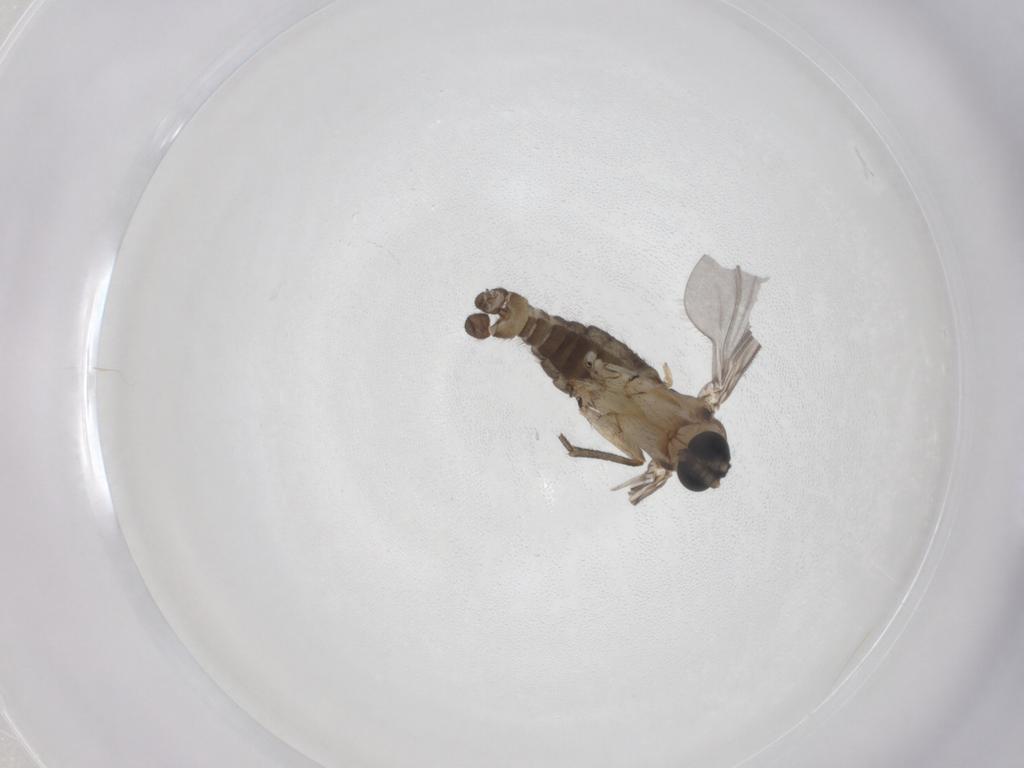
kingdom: Animalia
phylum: Arthropoda
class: Insecta
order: Diptera
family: Sciaridae
